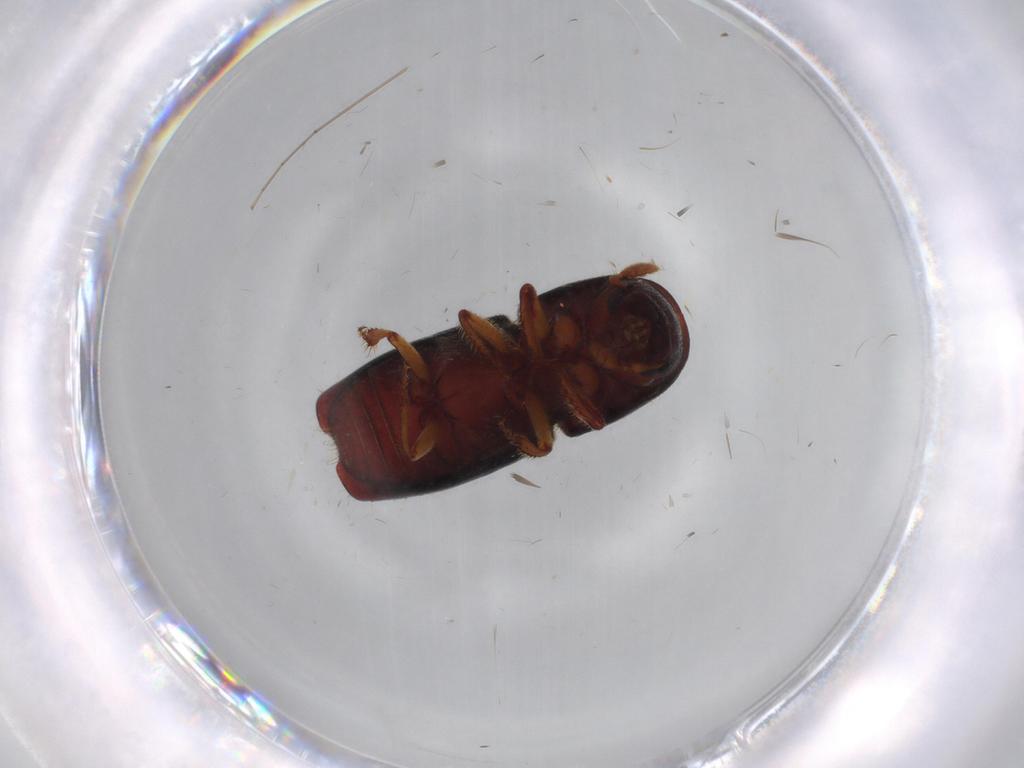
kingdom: Animalia
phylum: Arthropoda
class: Insecta
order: Coleoptera
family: Curculionidae
